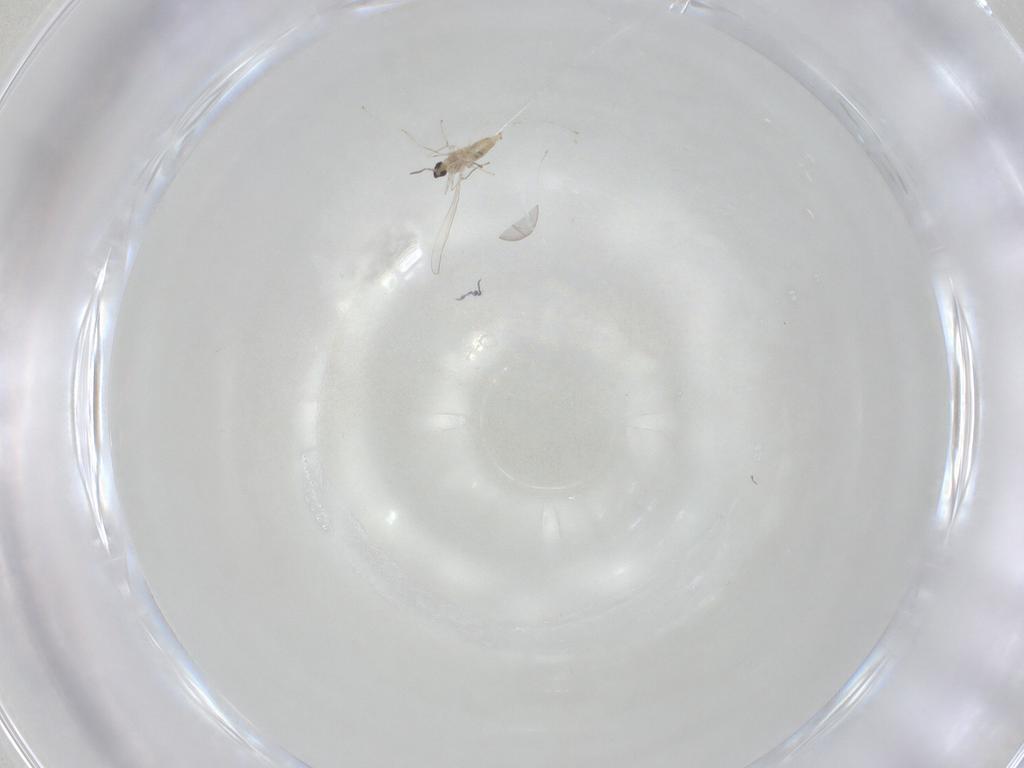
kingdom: Animalia
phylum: Arthropoda
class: Insecta
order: Diptera
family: Cecidomyiidae
